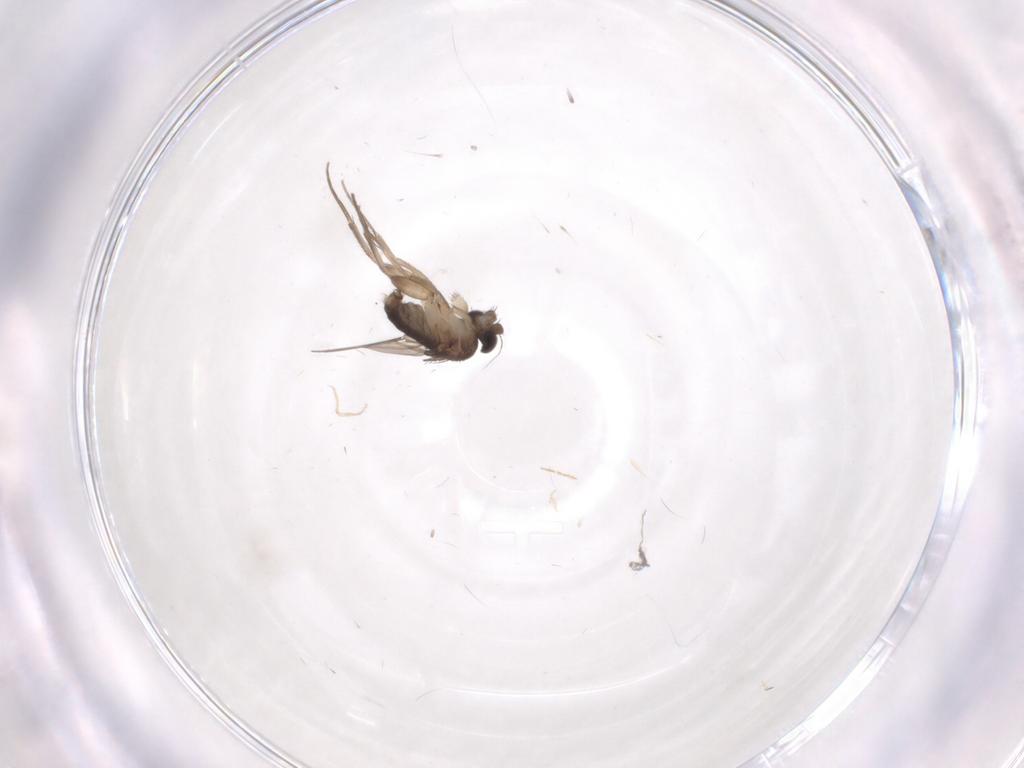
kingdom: Animalia
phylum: Arthropoda
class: Insecta
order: Diptera
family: Phoridae
